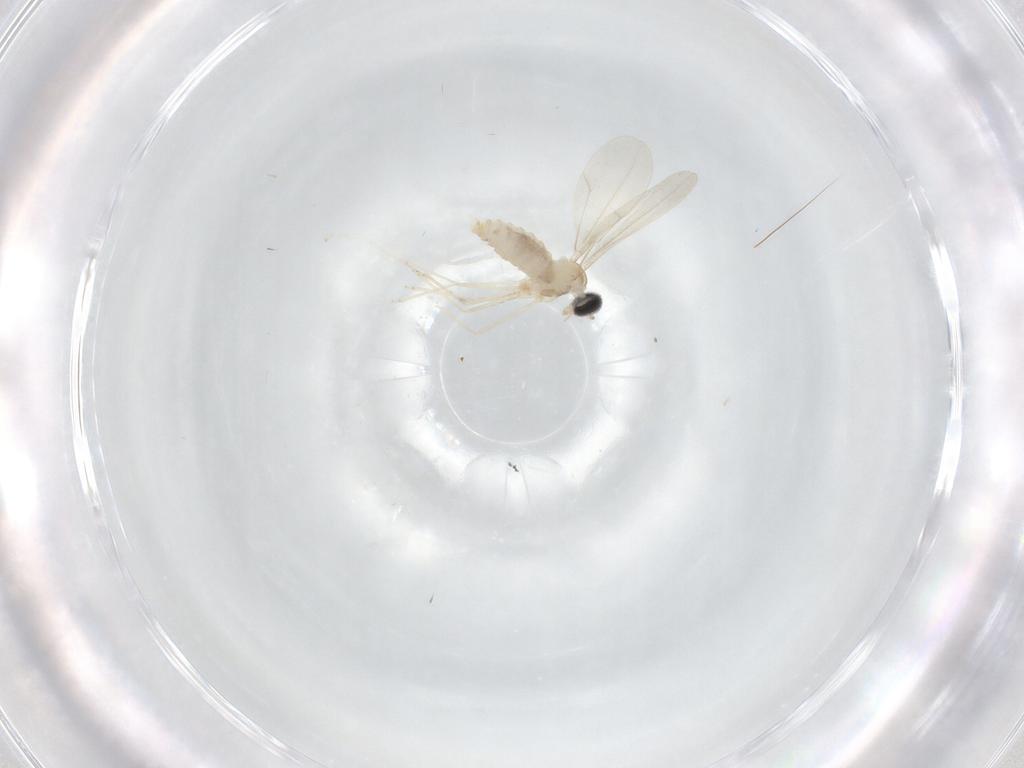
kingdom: Animalia
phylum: Arthropoda
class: Insecta
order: Diptera
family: Cecidomyiidae
